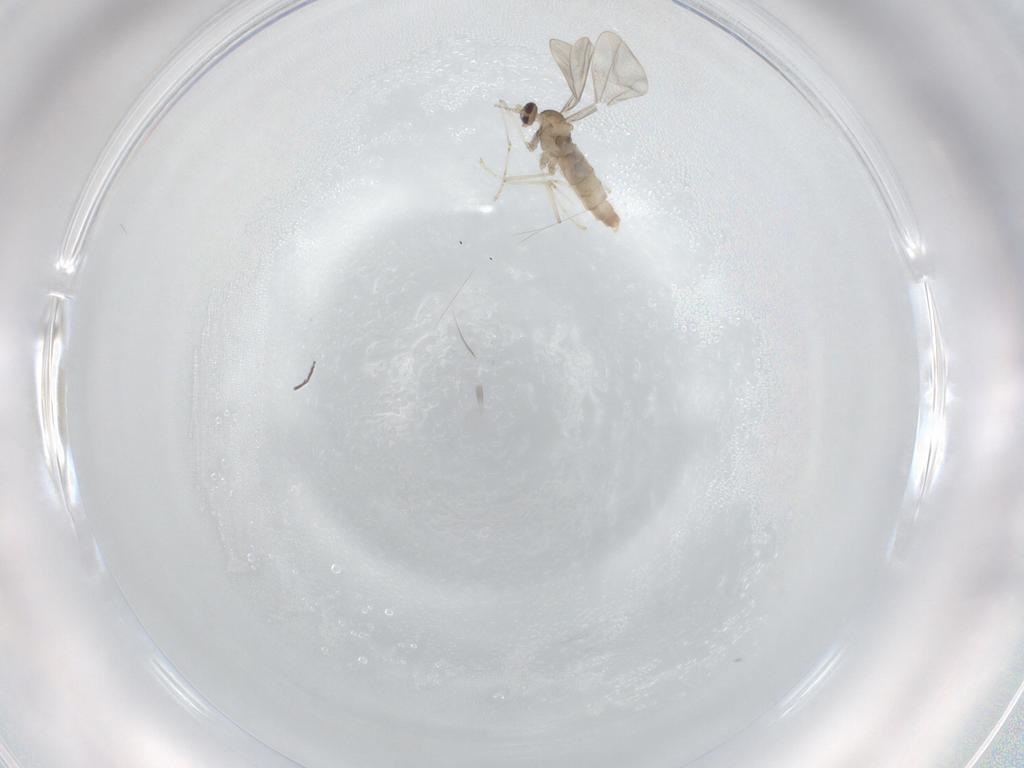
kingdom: Animalia
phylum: Arthropoda
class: Insecta
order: Diptera
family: Cecidomyiidae
